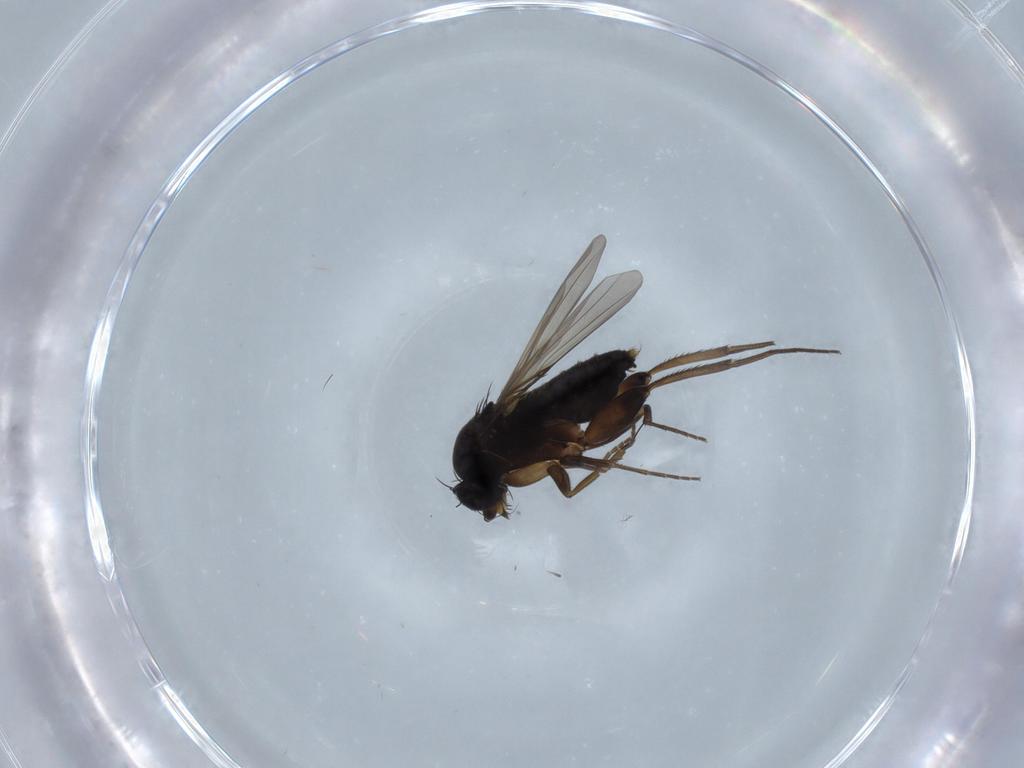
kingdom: Animalia
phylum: Arthropoda
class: Insecta
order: Diptera
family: Phoridae
